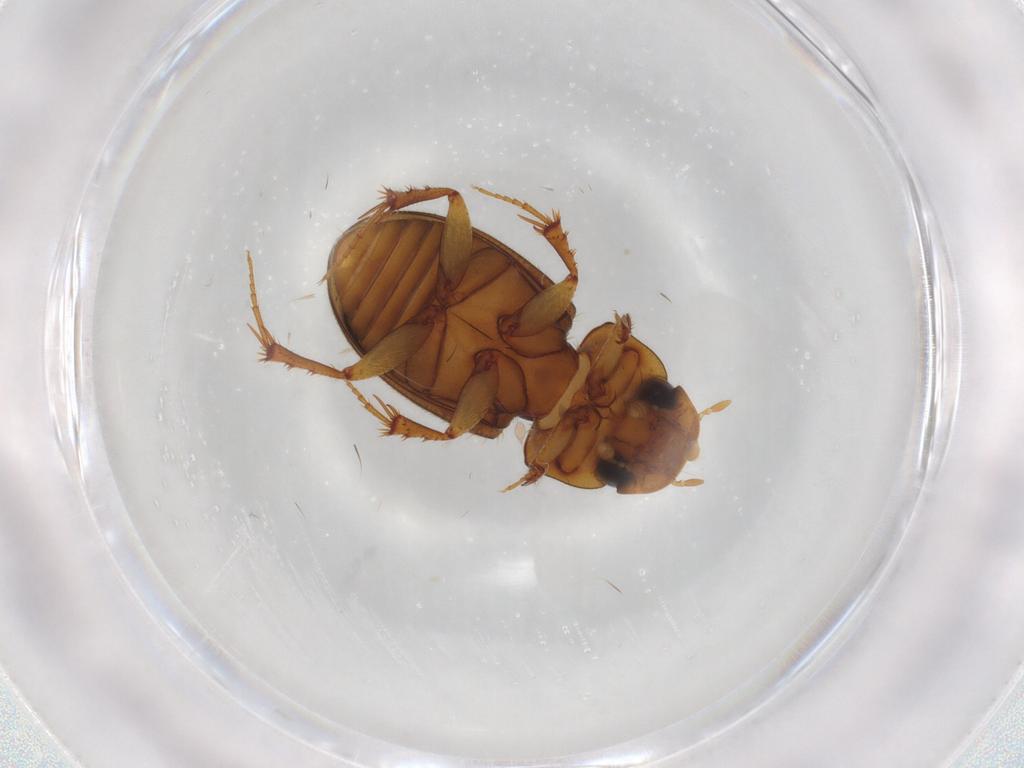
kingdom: Animalia
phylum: Arthropoda
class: Insecta
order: Coleoptera
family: Scarabaeidae
